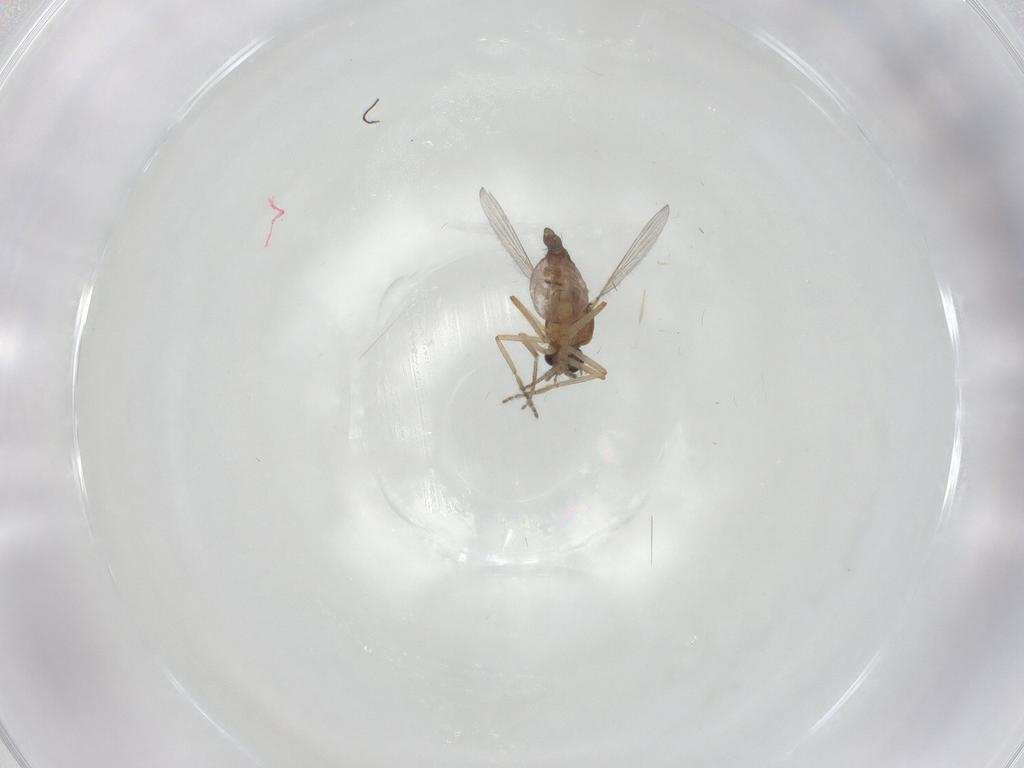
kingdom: Animalia
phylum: Arthropoda
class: Insecta
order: Diptera
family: Ceratopogonidae
